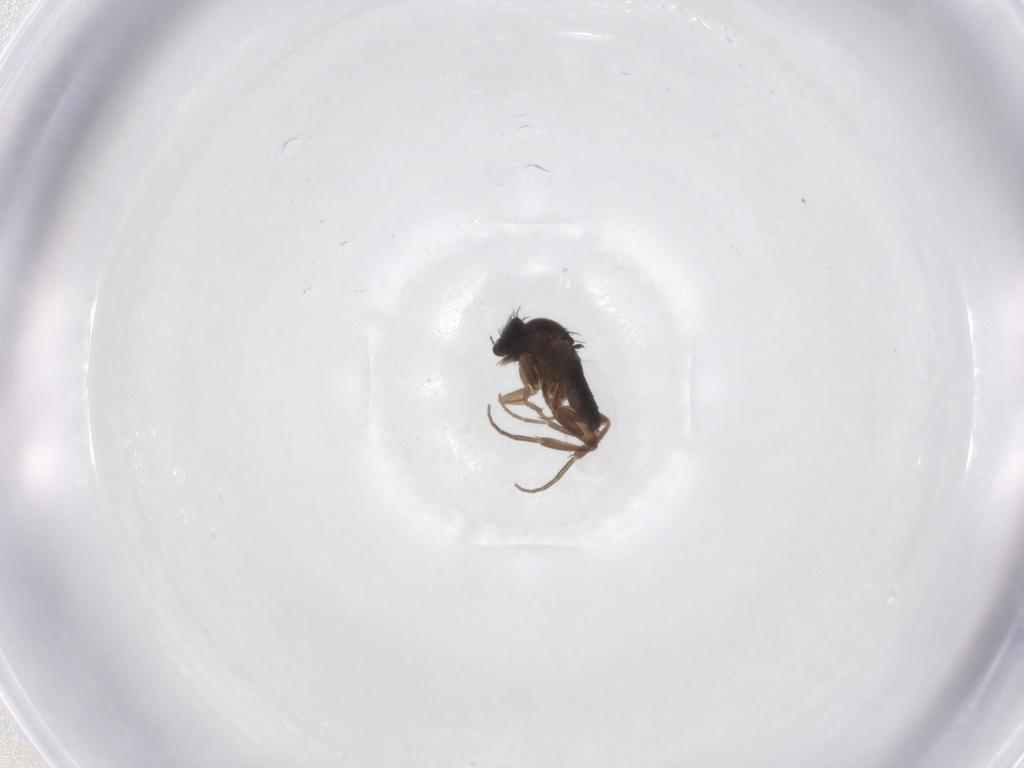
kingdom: Animalia
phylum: Arthropoda
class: Insecta
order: Diptera
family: Phoridae
